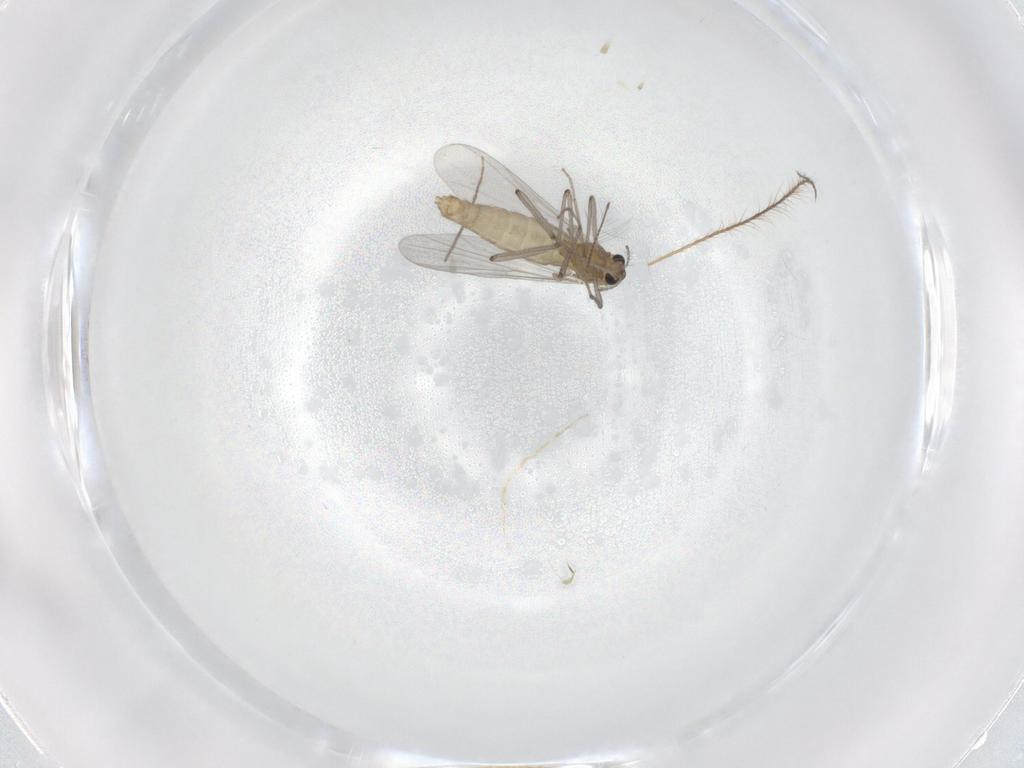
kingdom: Animalia
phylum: Arthropoda
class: Insecta
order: Diptera
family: Chironomidae
